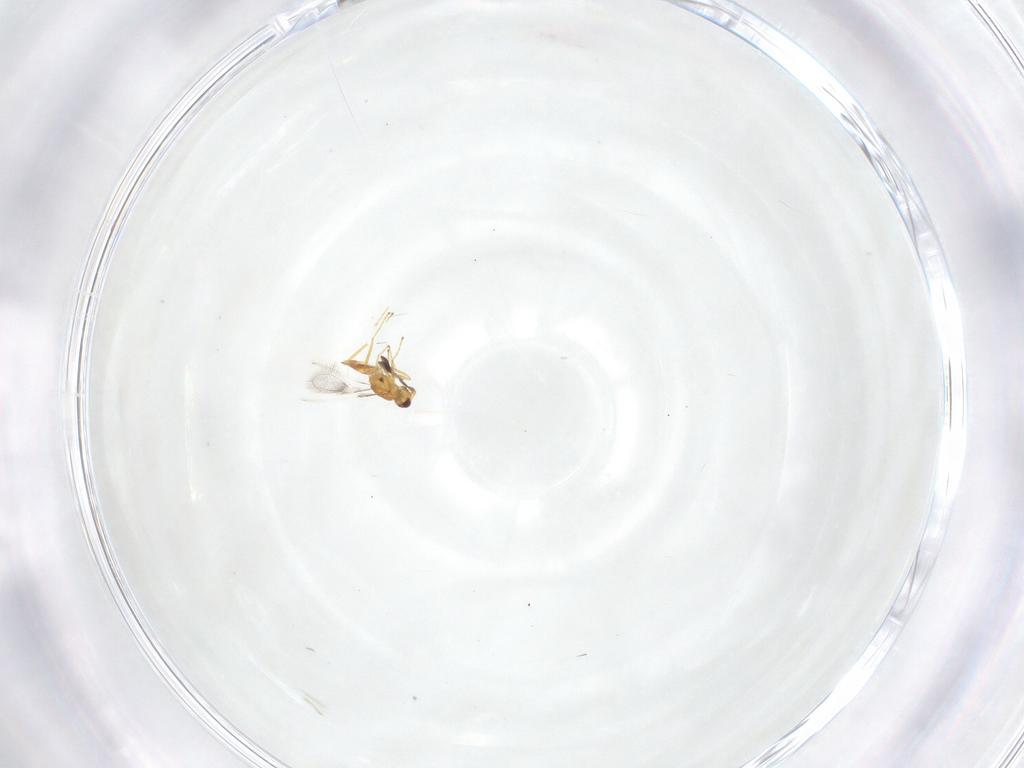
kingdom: Animalia
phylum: Arthropoda
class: Insecta
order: Hymenoptera
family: Mymaridae
